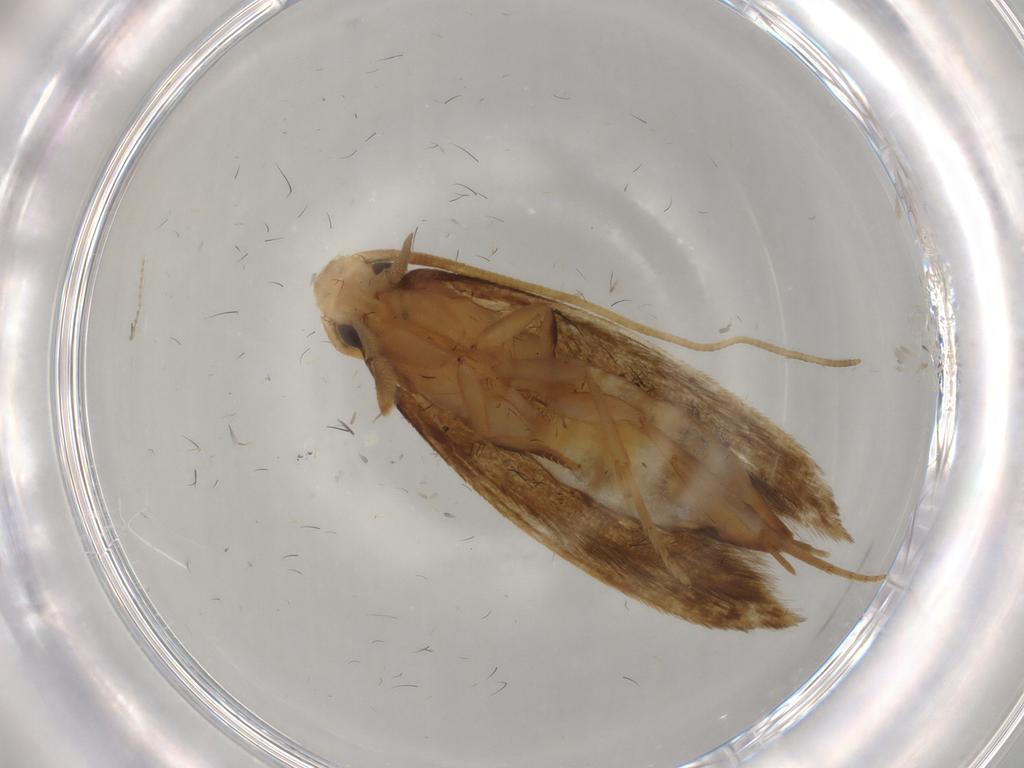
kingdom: Animalia
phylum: Arthropoda
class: Insecta
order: Lepidoptera
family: Tineidae
